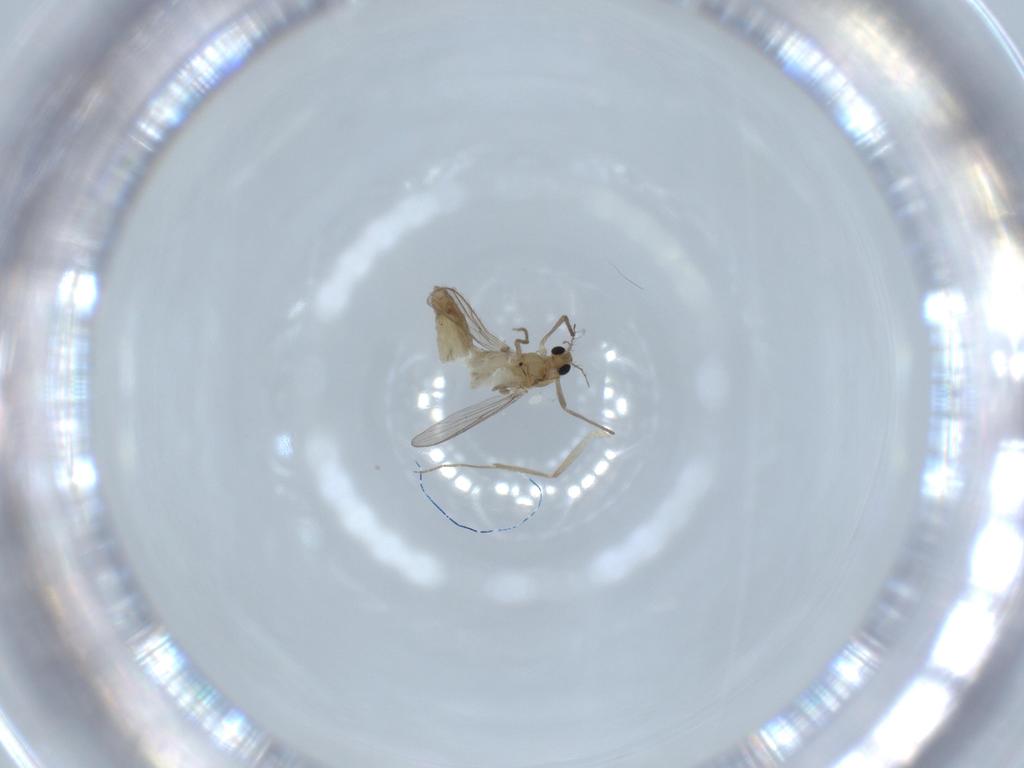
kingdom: Animalia
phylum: Arthropoda
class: Insecta
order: Diptera
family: Chironomidae
